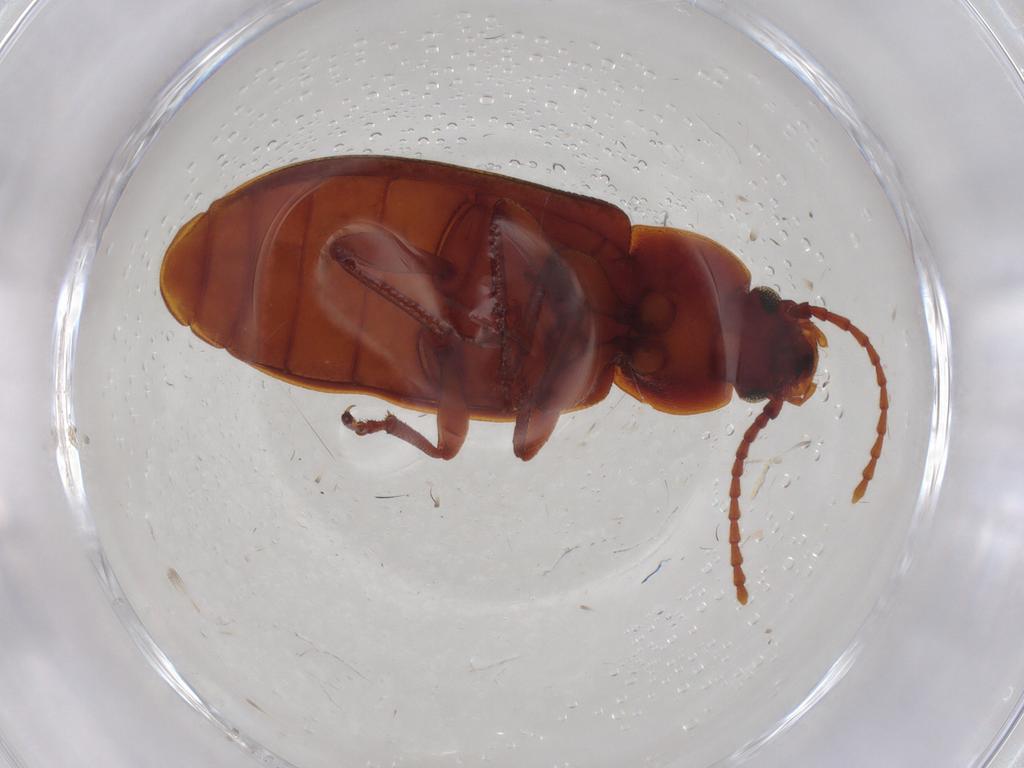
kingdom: Animalia
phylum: Arthropoda
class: Insecta
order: Coleoptera
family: Tenebrionidae
